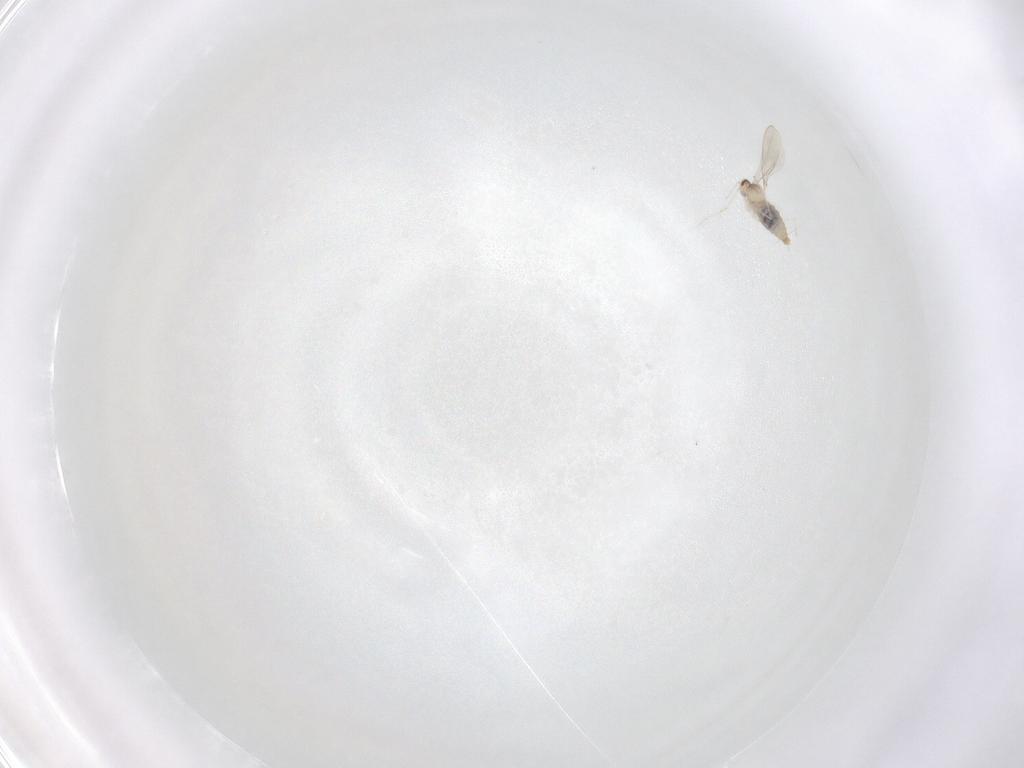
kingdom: Animalia
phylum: Arthropoda
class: Insecta
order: Diptera
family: Cecidomyiidae
